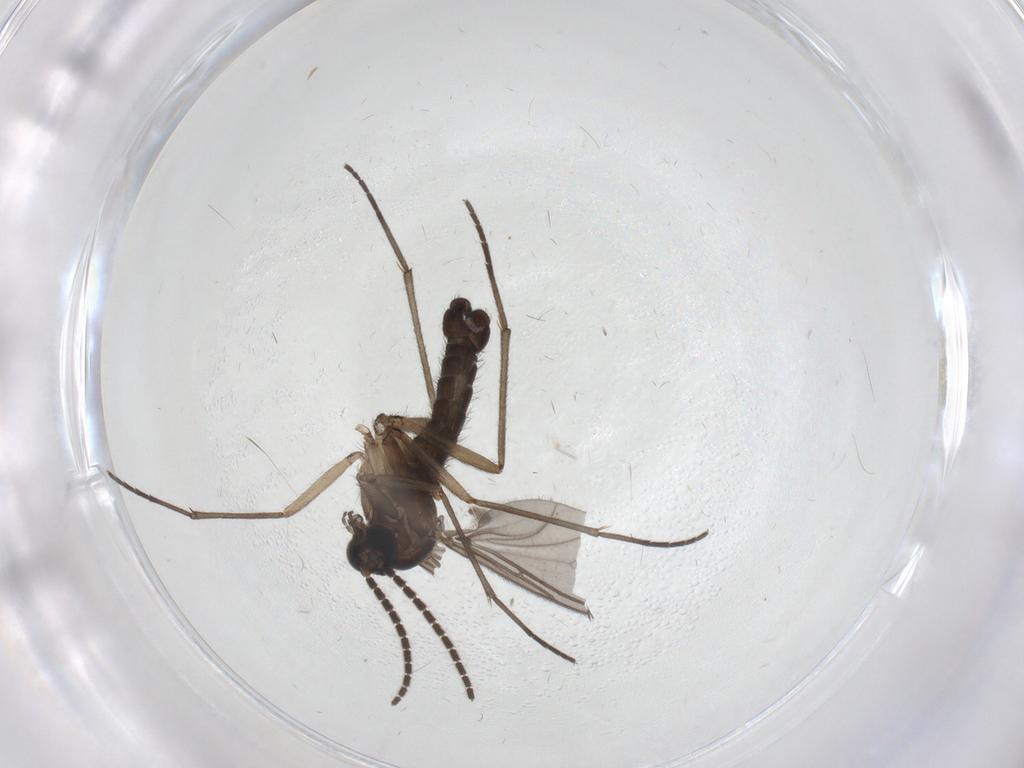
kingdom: Animalia
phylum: Arthropoda
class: Insecta
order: Diptera
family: Sciaridae
